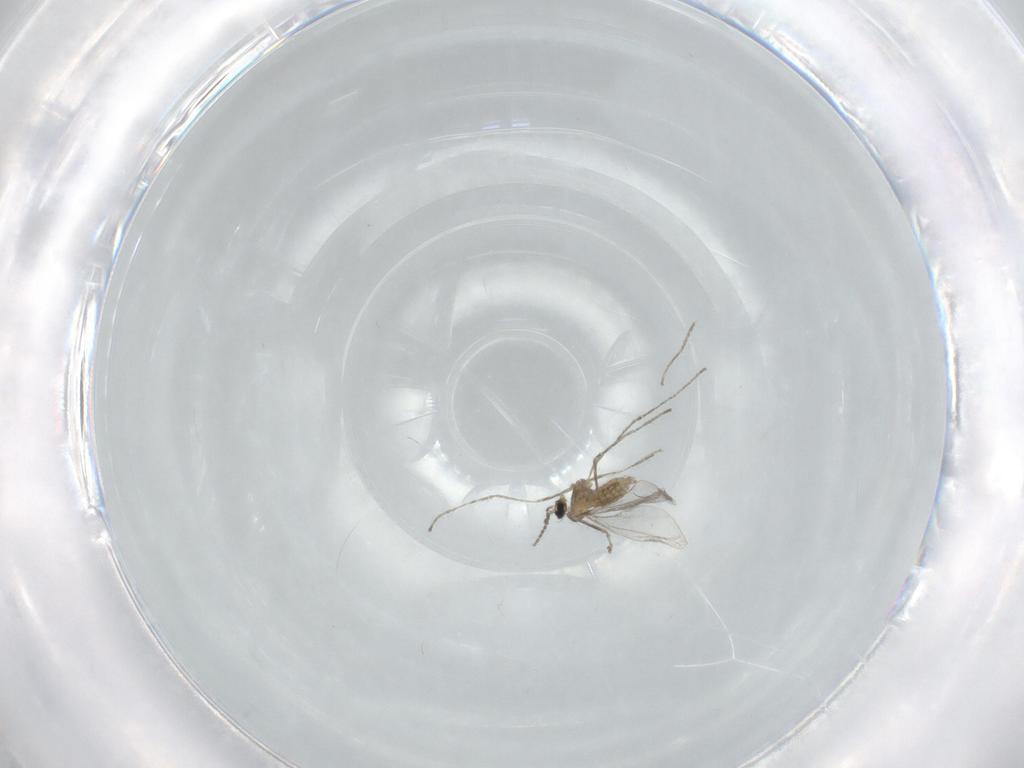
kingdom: Animalia
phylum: Arthropoda
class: Insecta
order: Diptera
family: Cecidomyiidae
